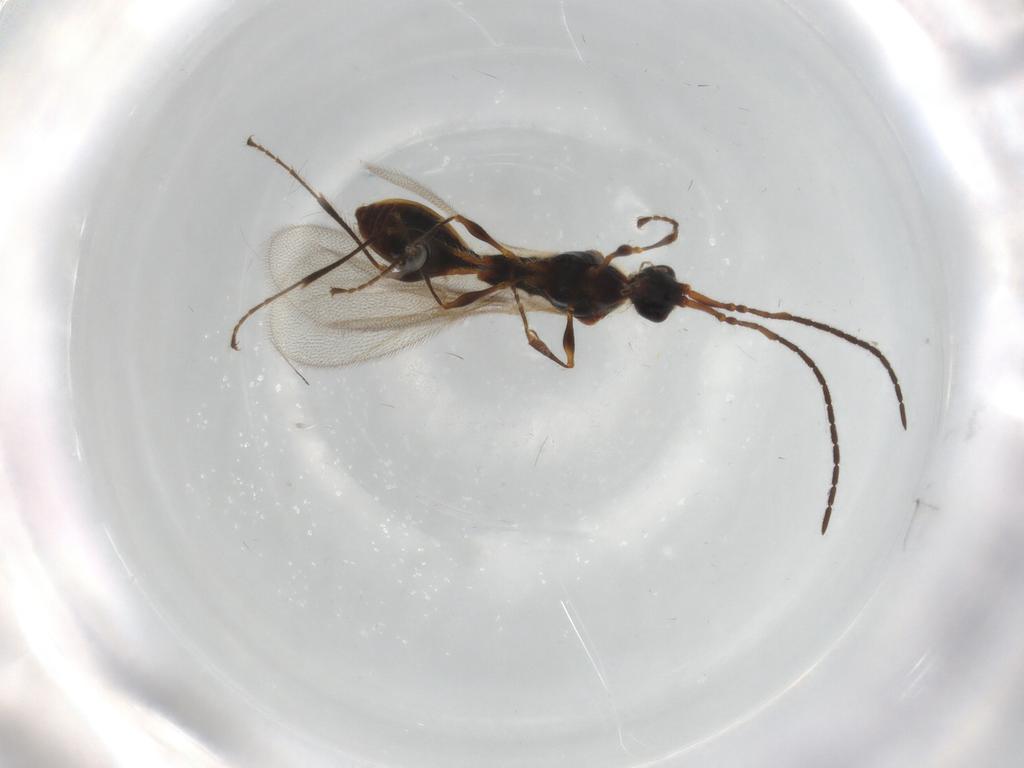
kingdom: Animalia
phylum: Arthropoda
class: Insecta
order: Hymenoptera
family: Diapriidae
